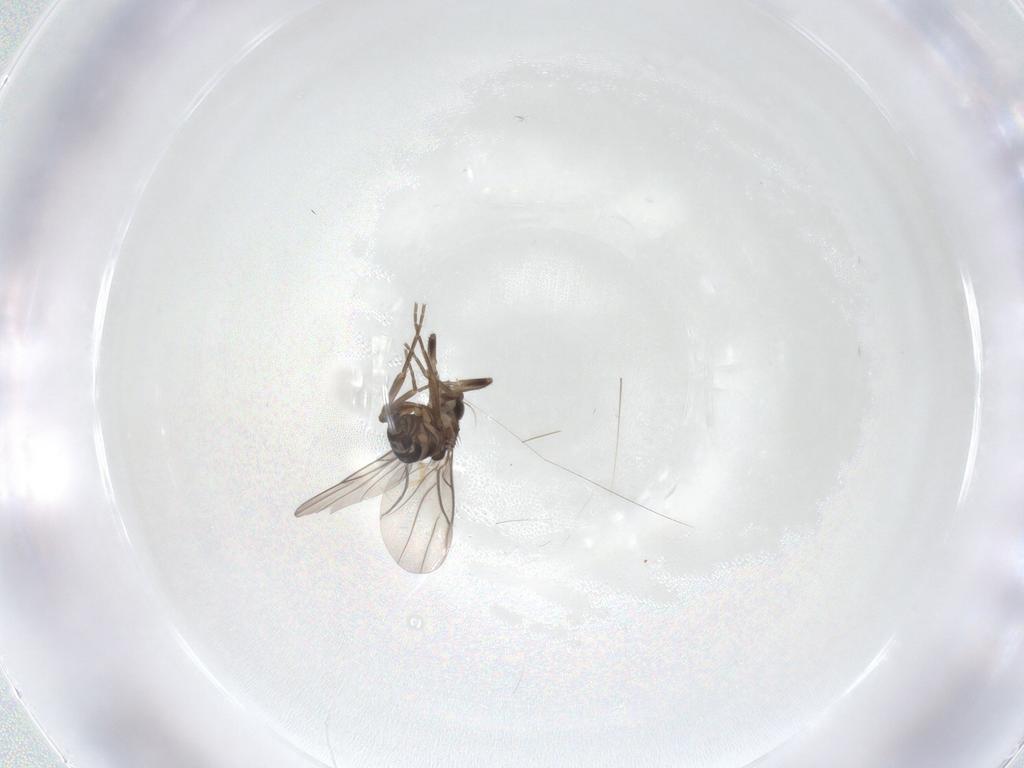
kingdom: Animalia
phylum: Arthropoda
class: Insecta
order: Diptera
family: Phoridae
